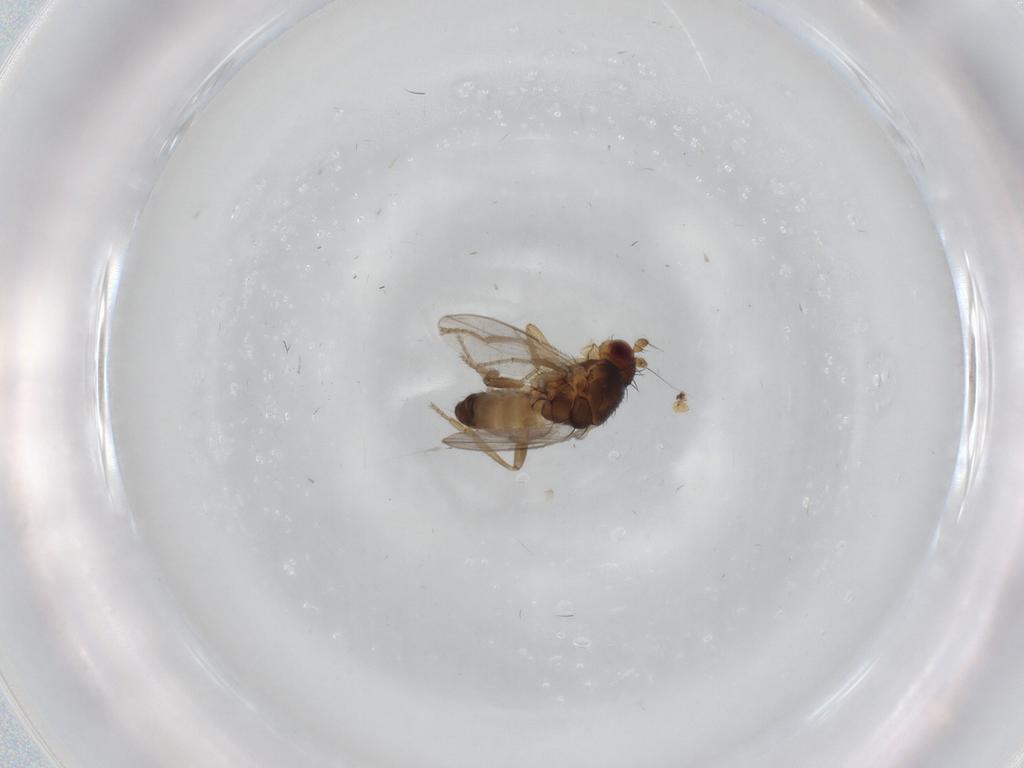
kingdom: Animalia
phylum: Arthropoda
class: Insecta
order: Diptera
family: Sphaeroceridae
